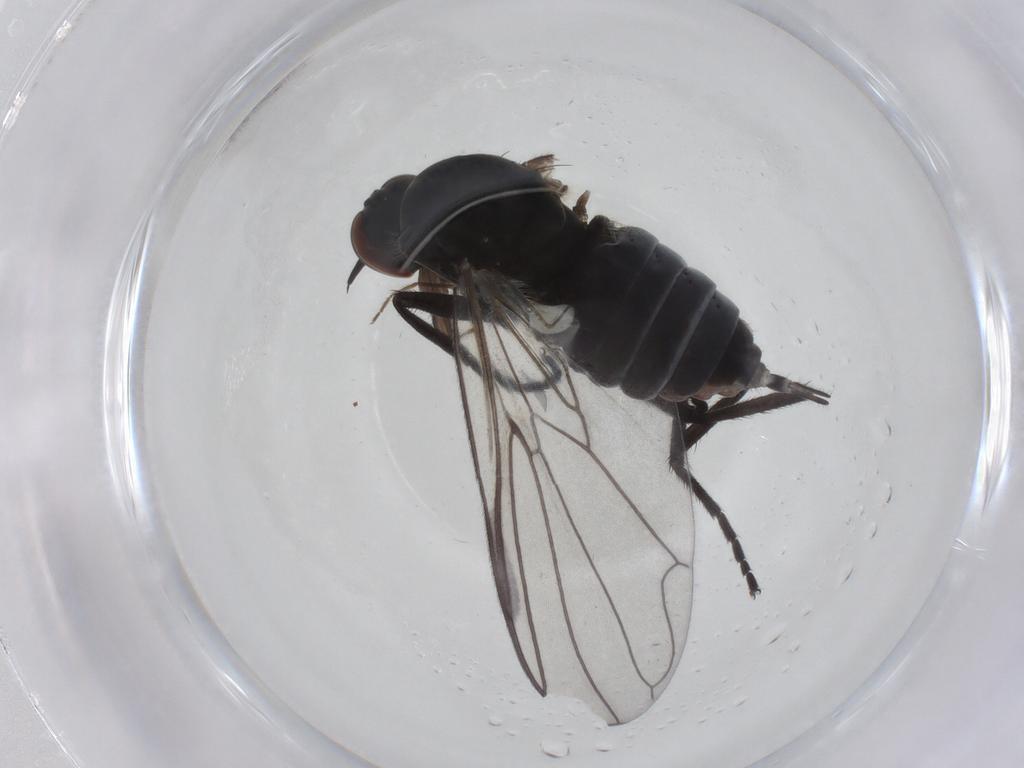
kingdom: Animalia
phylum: Arthropoda
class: Insecta
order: Diptera
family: Empididae
